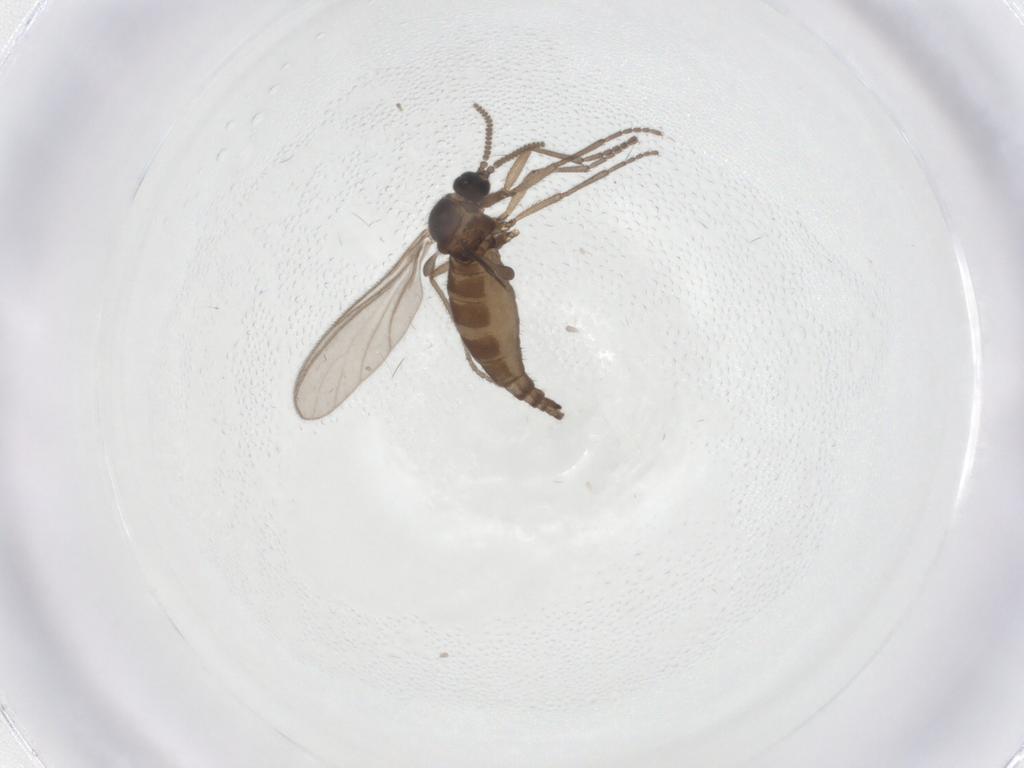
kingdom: Animalia
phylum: Arthropoda
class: Insecta
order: Diptera
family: Sciaridae
